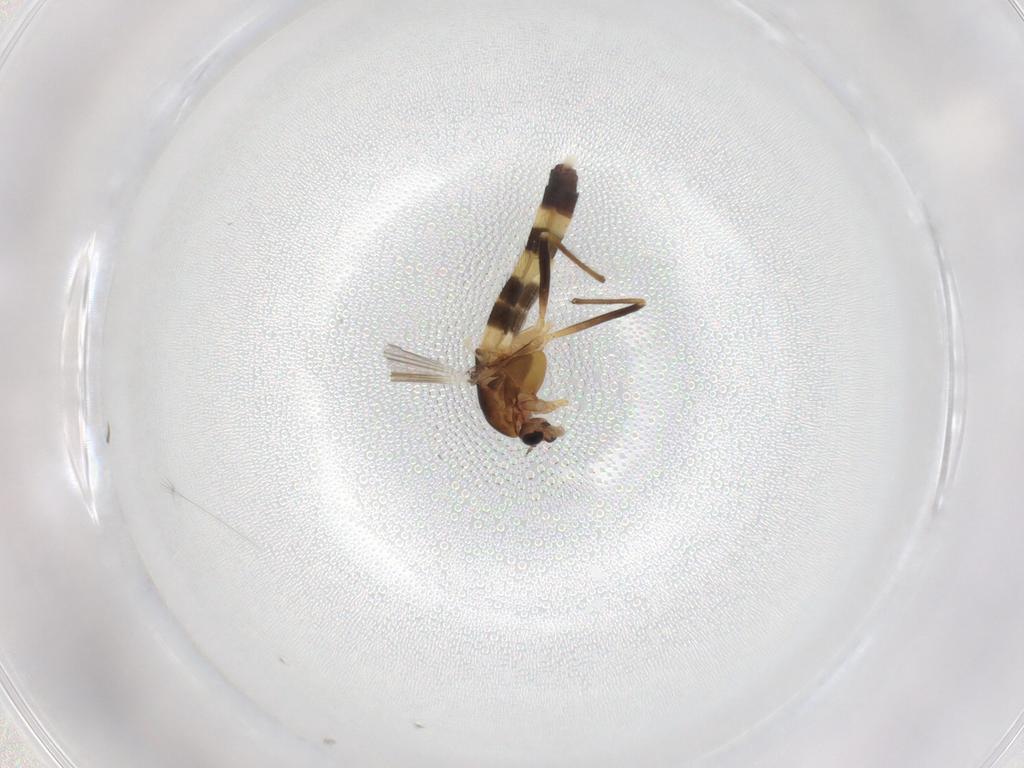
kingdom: Animalia
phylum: Arthropoda
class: Insecta
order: Diptera
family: Chironomidae
